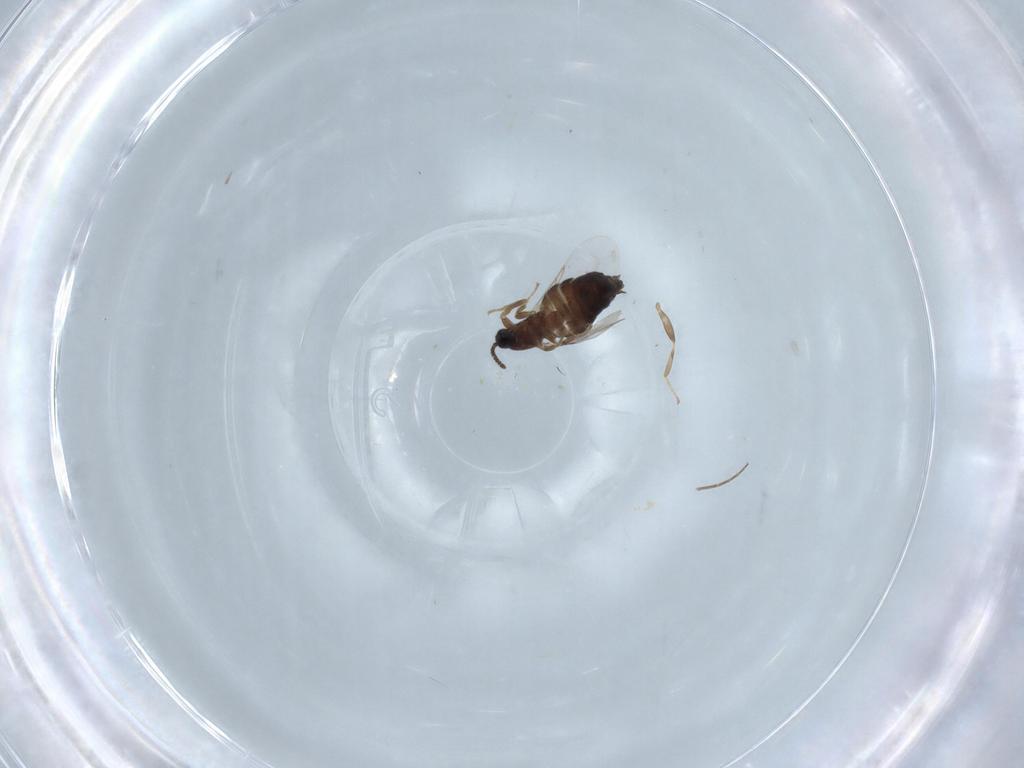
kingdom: Animalia
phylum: Arthropoda
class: Insecta
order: Diptera
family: Scatopsidae
